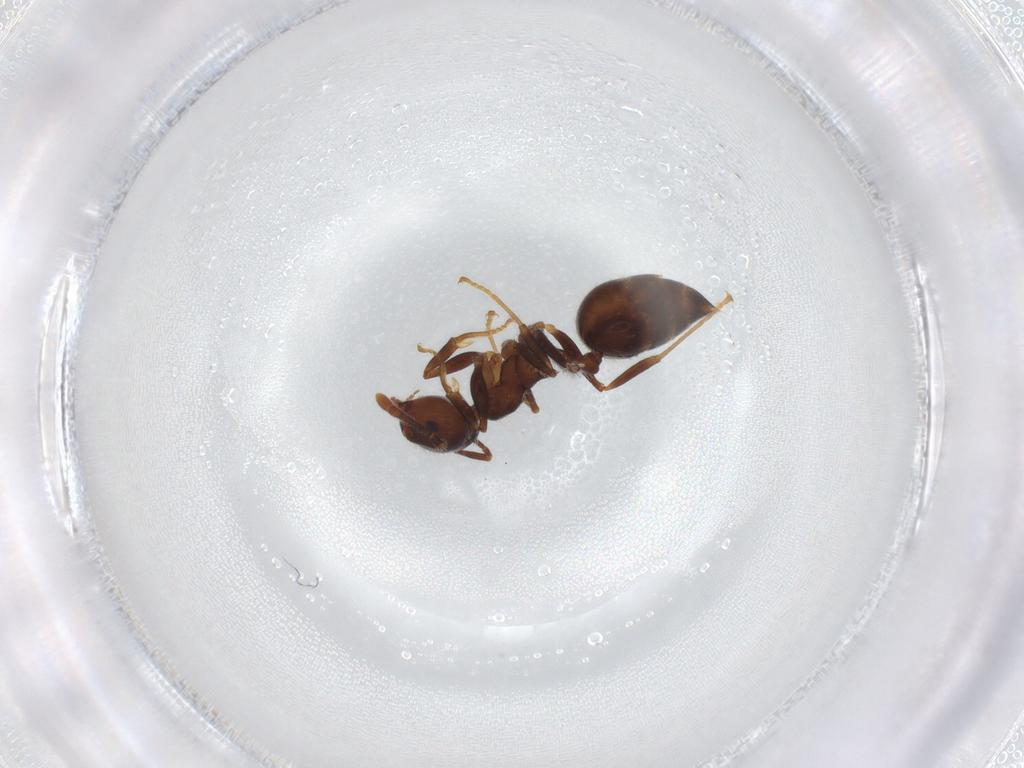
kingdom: Animalia
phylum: Arthropoda
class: Insecta
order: Hymenoptera
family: Formicidae
